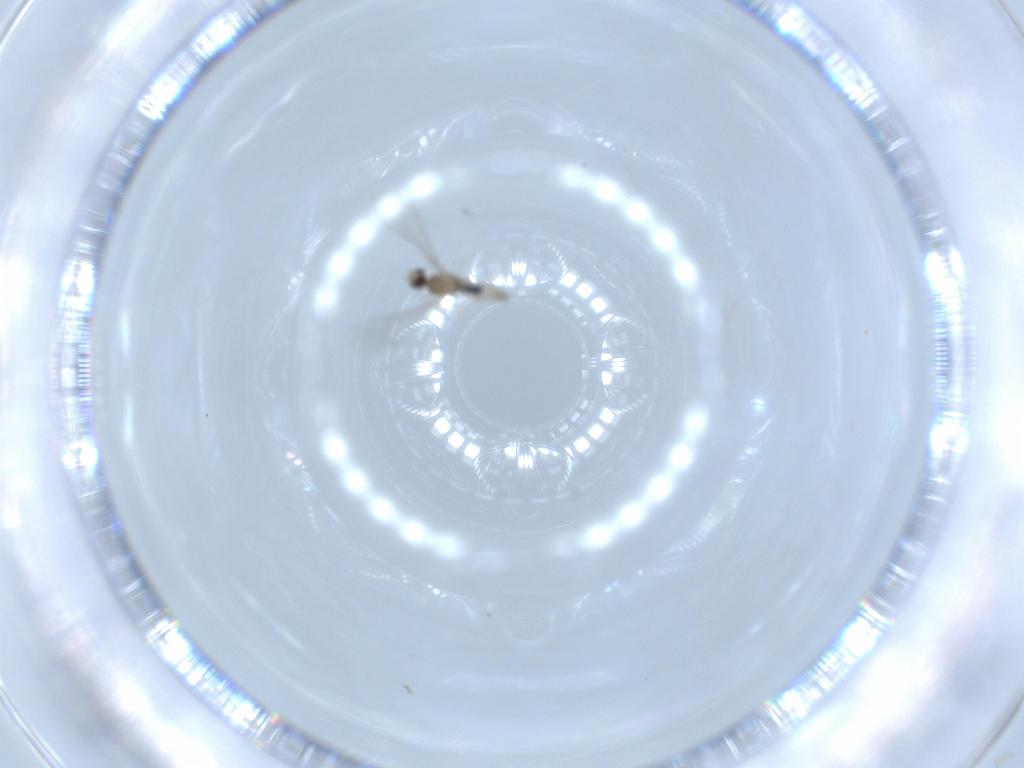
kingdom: Animalia
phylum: Arthropoda
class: Insecta
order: Diptera
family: Cecidomyiidae
